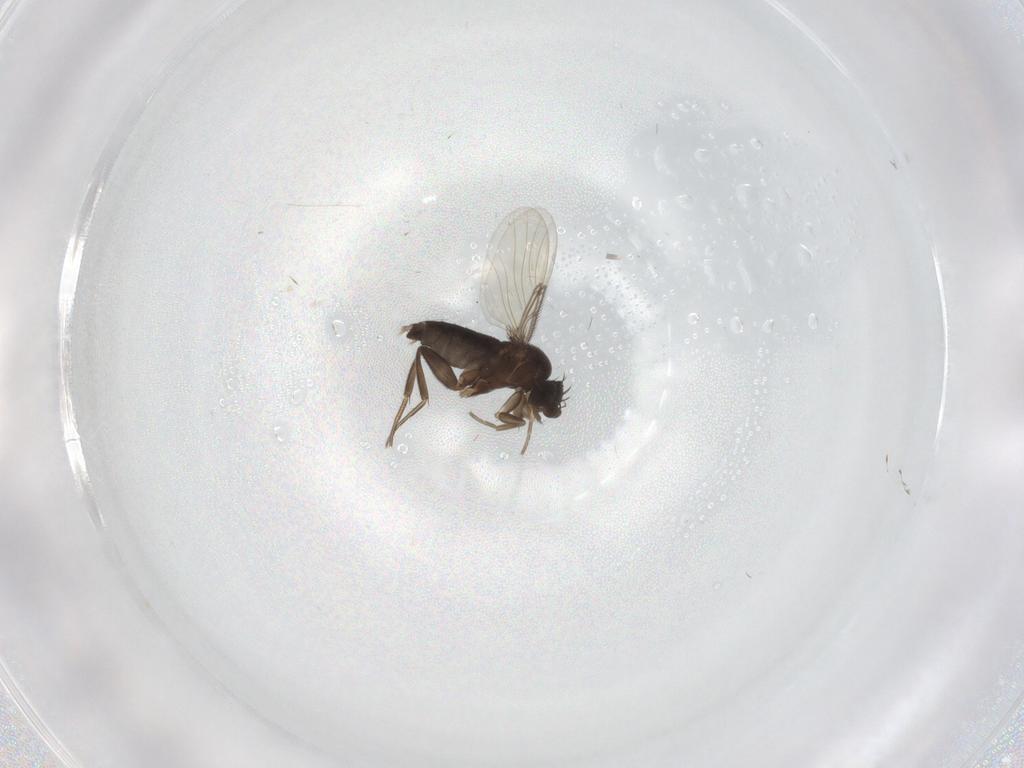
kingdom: Animalia
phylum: Arthropoda
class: Insecta
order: Diptera
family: Phoridae
